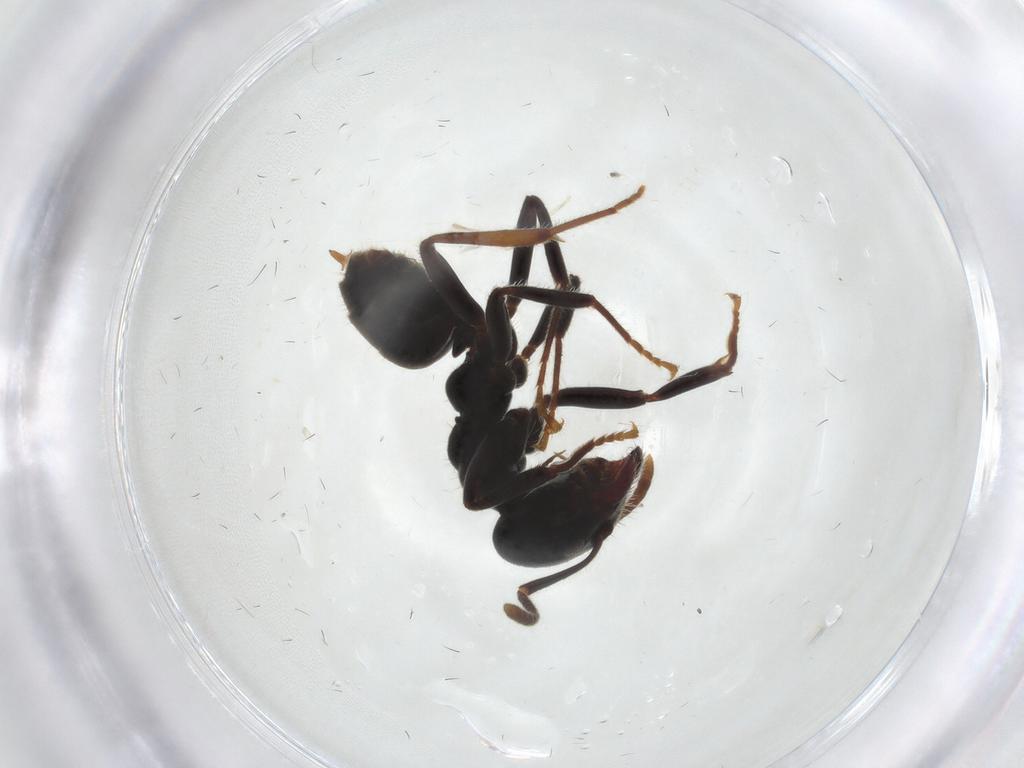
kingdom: Animalia
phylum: Arthropoda
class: Insecta
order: Hymenoptera
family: Formicidae
